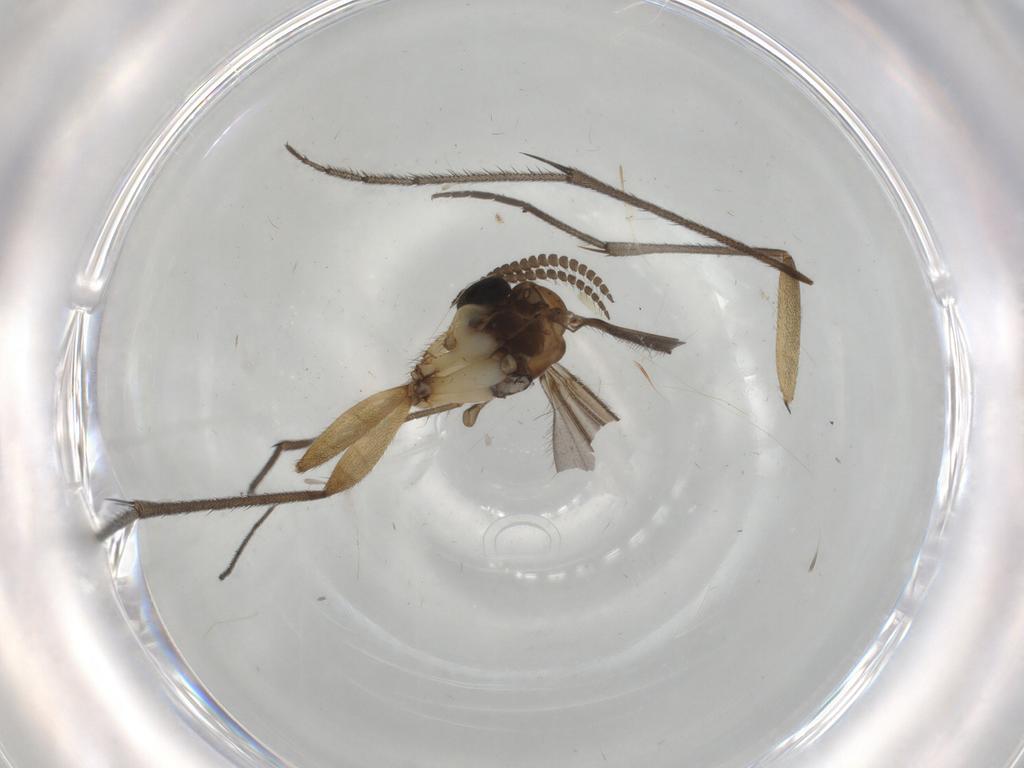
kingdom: Animalia
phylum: Arthropoda
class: Insecta
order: Diptera
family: Ditomyiidae
